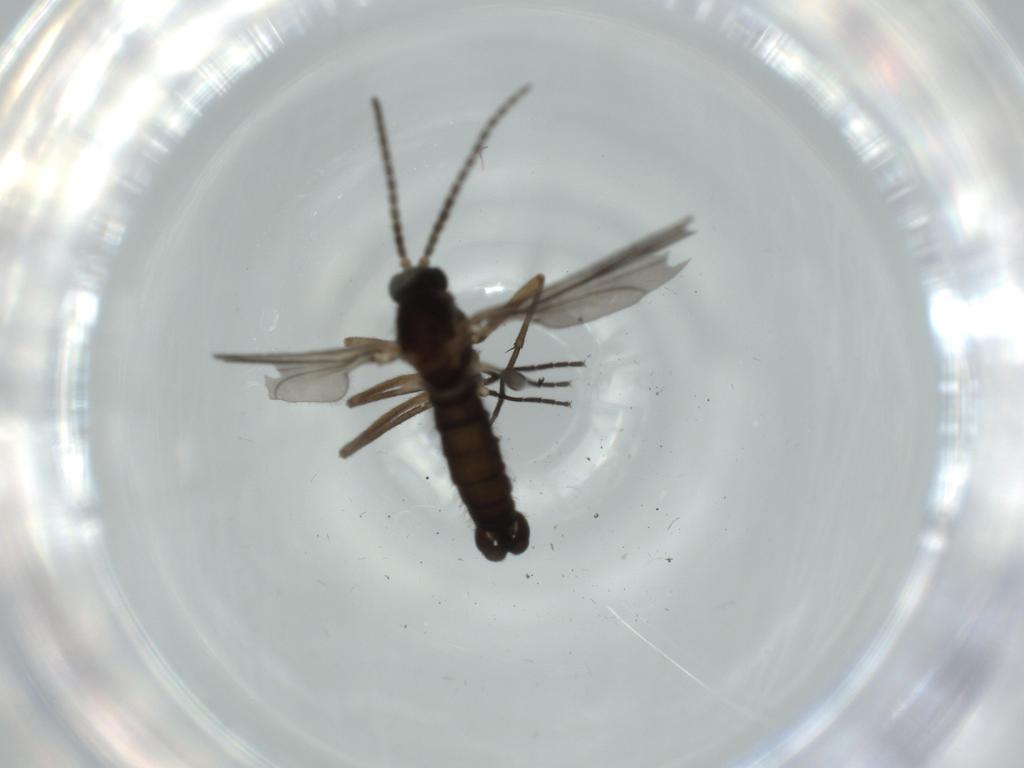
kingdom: Animalia
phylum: Arthropoda
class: Insecta
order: Diptera
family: Sciaridae
